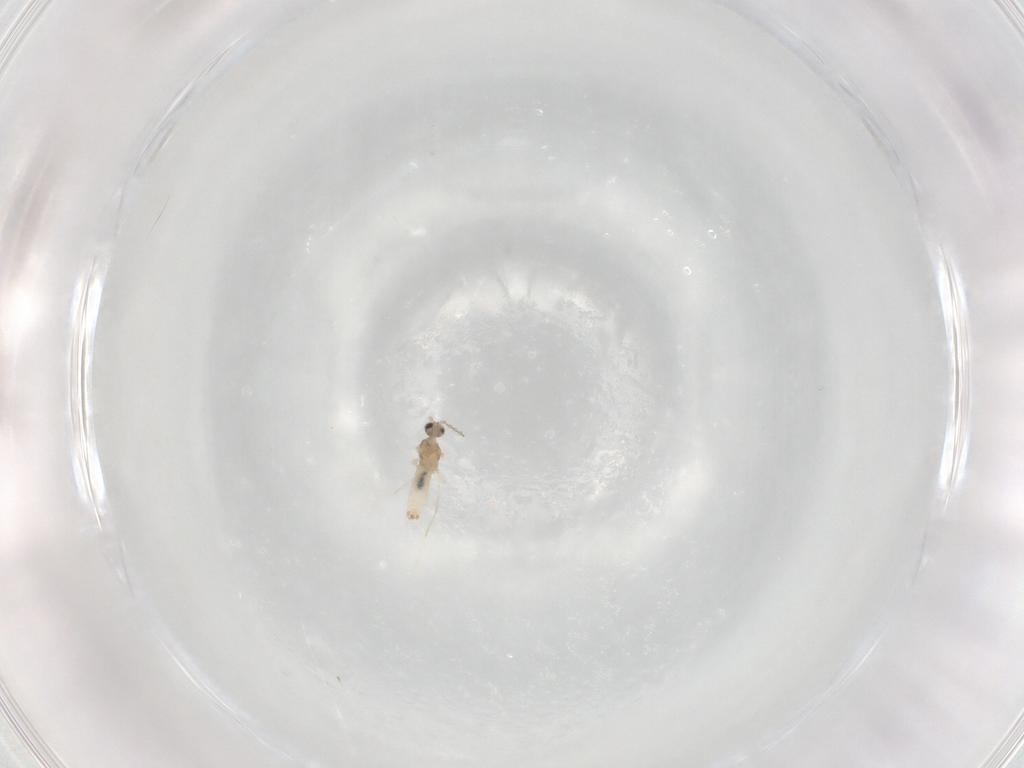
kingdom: Animalia
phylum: Arthropoda
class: Insecta
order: Diptera
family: Cecidomyiidae
